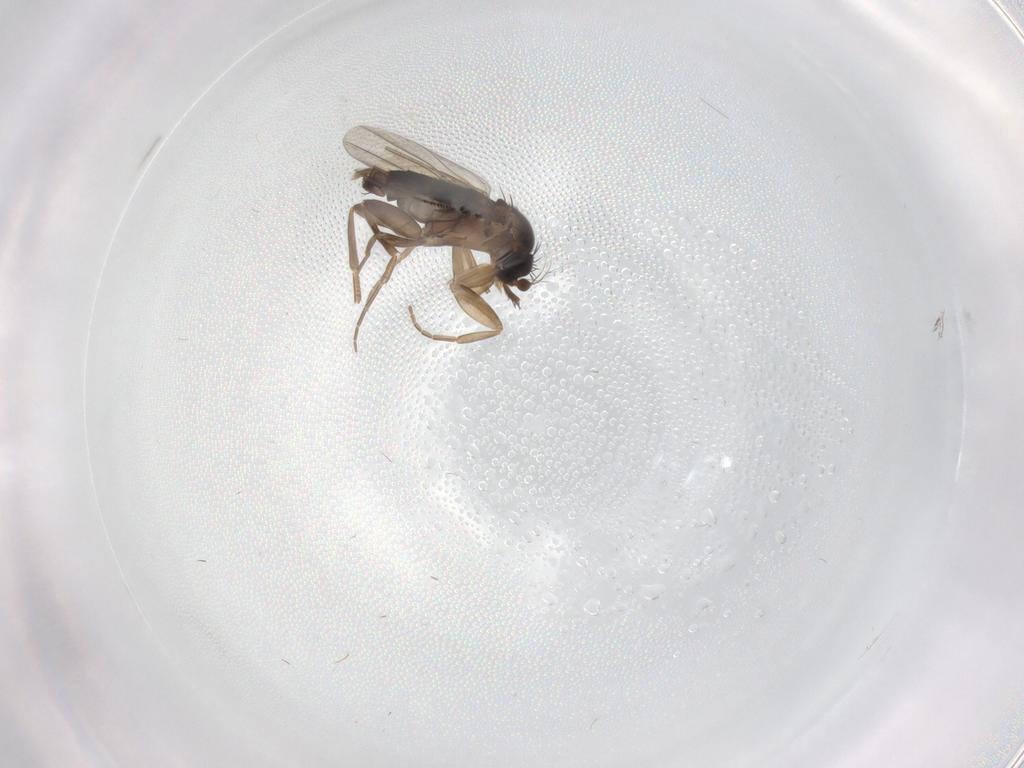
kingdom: Animalia
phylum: Arthropoda
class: Insecta
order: Diptera
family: Phoridae
